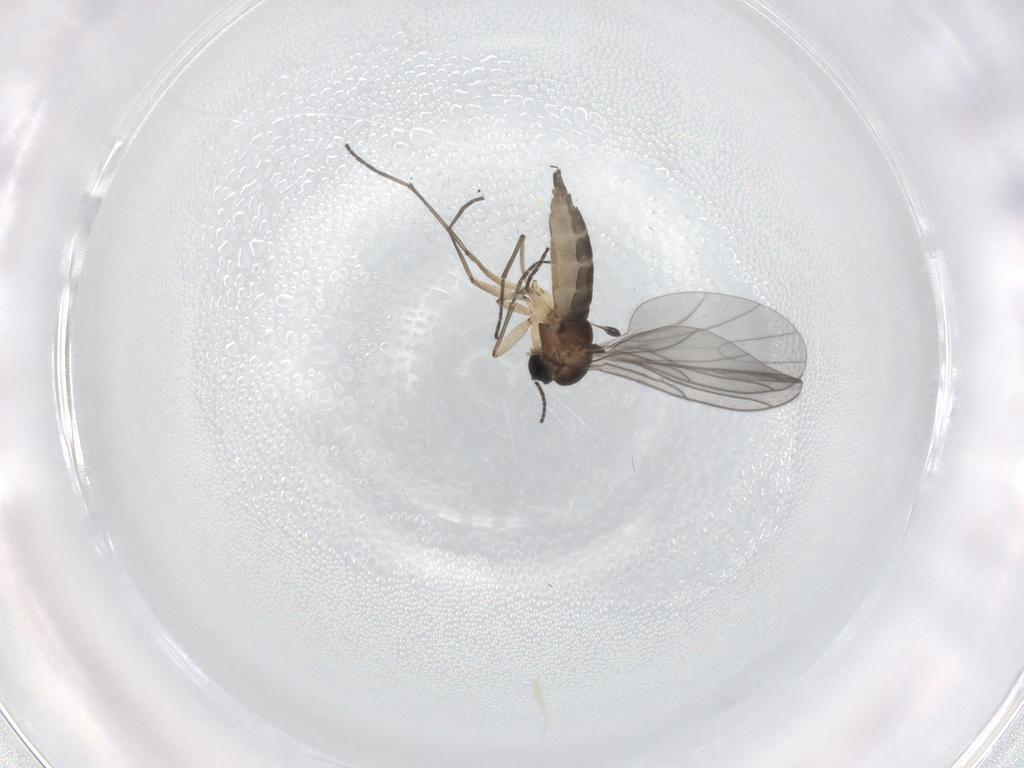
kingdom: Animalia
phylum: Arthropoda
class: Insecta
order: Diptera
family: Sciaridae
